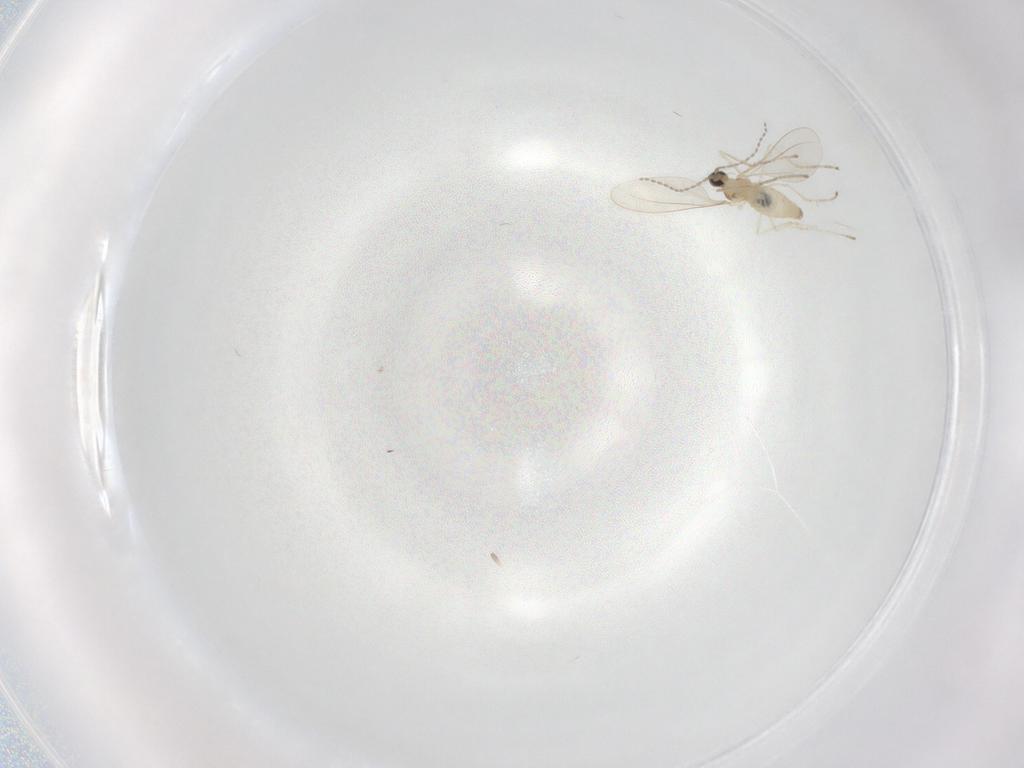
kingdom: Animalia
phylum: Arthropoda
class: Insecta
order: Diptera
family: Culicidae
